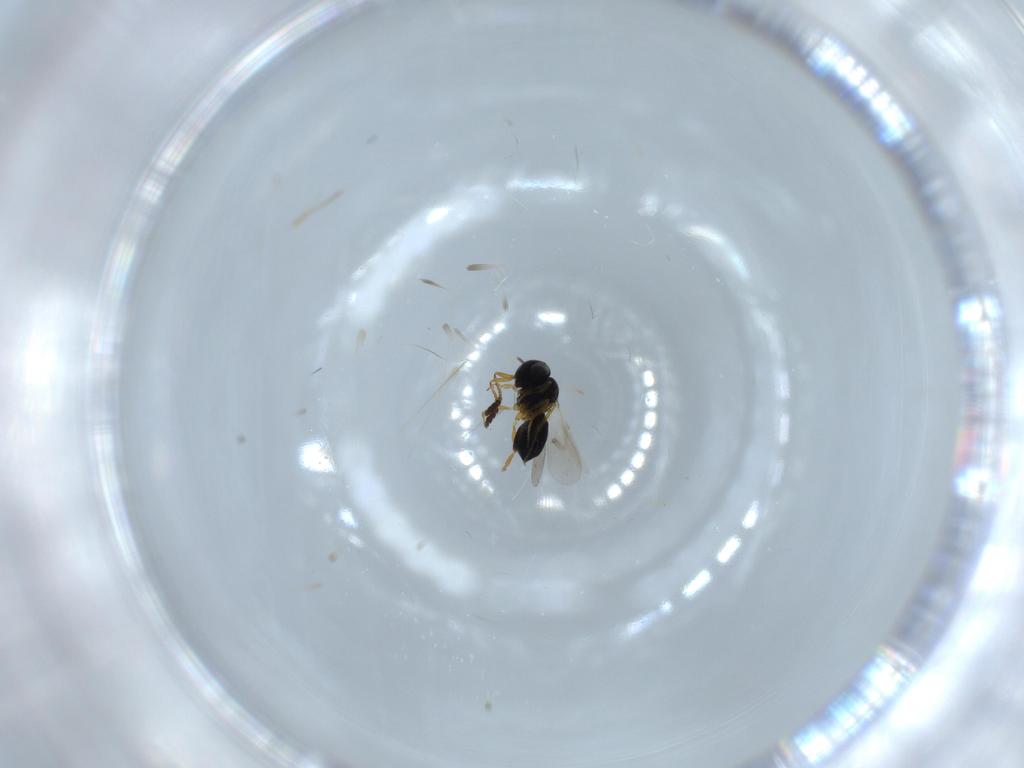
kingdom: Animalia
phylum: Arthropoda
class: Insecta
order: Hymenoptera
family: Scelionidae
